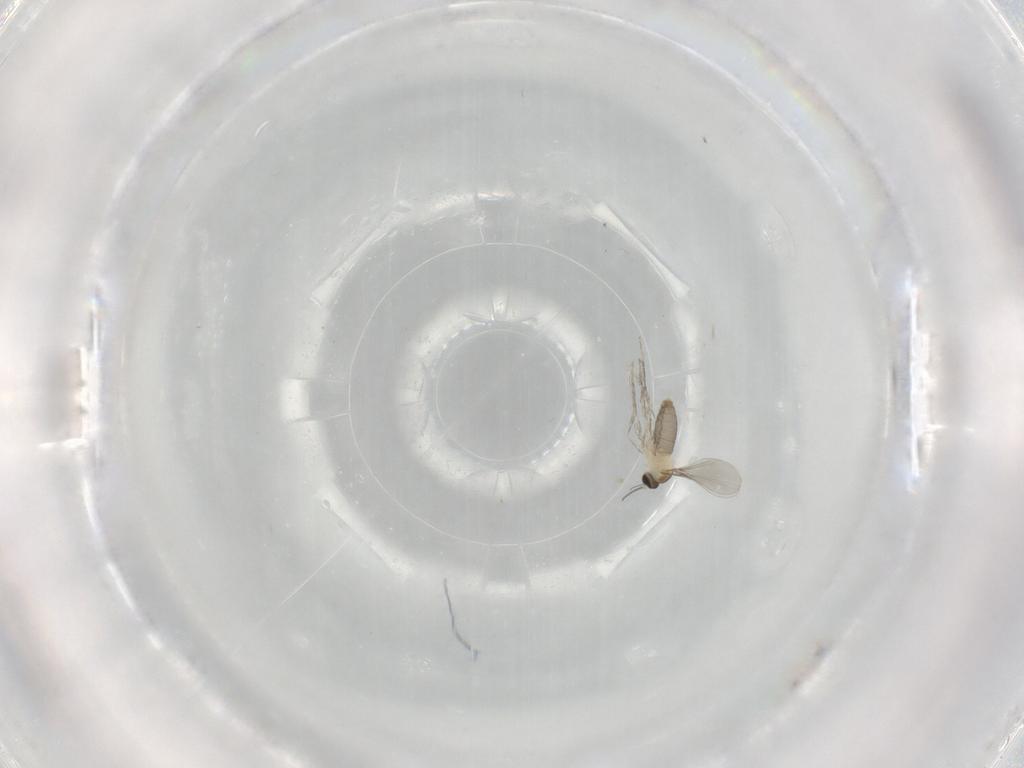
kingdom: Animalia
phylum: Arthropoda
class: Insecta
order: Diptera
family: Cecidomyiidae
